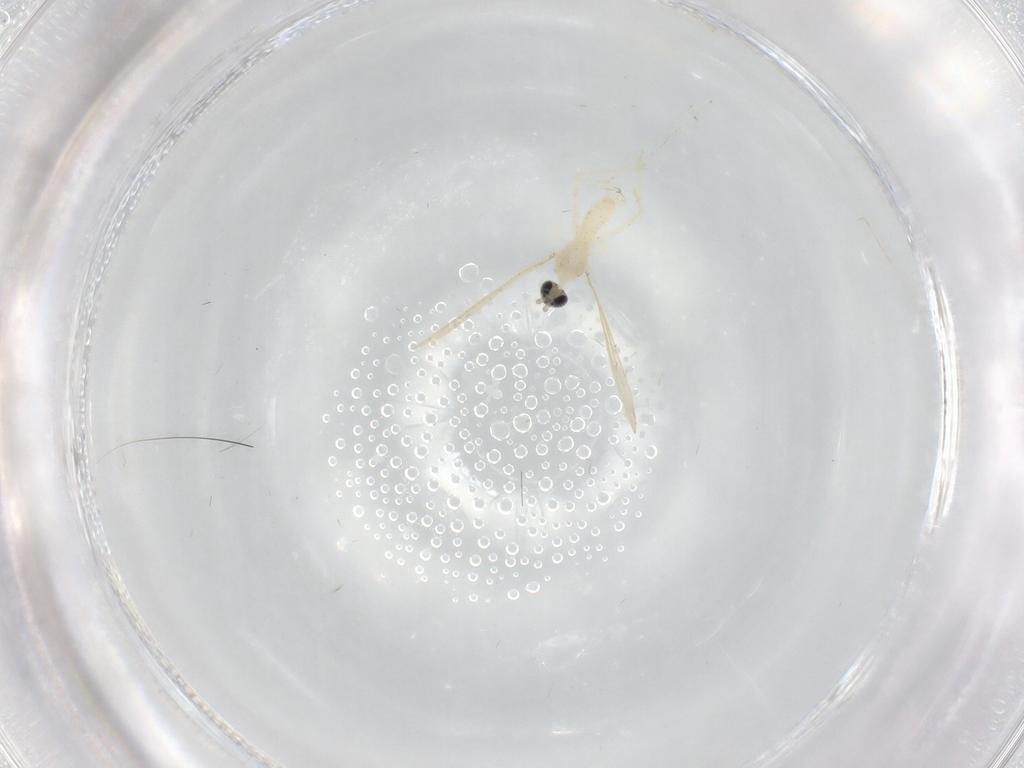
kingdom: Animalia
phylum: Arthropoda
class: Insecta
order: Diptera
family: Cecidomyiidae
